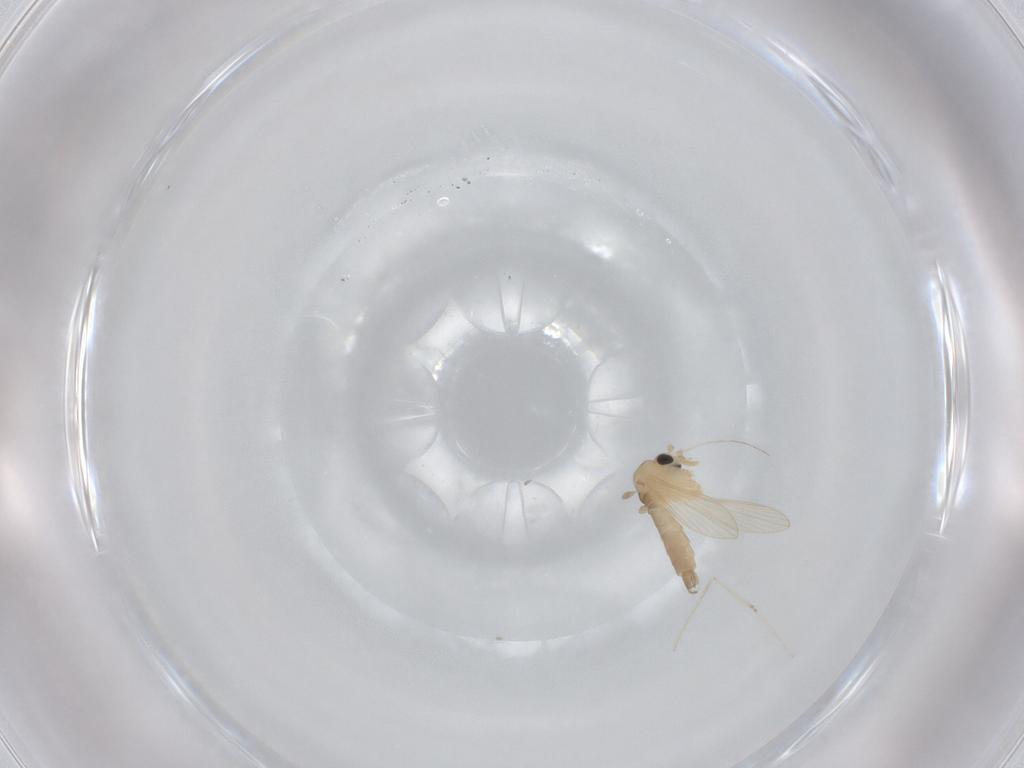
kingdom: Animalia
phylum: Arthropoda
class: Insecta
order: Diptera
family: Psychodidae
